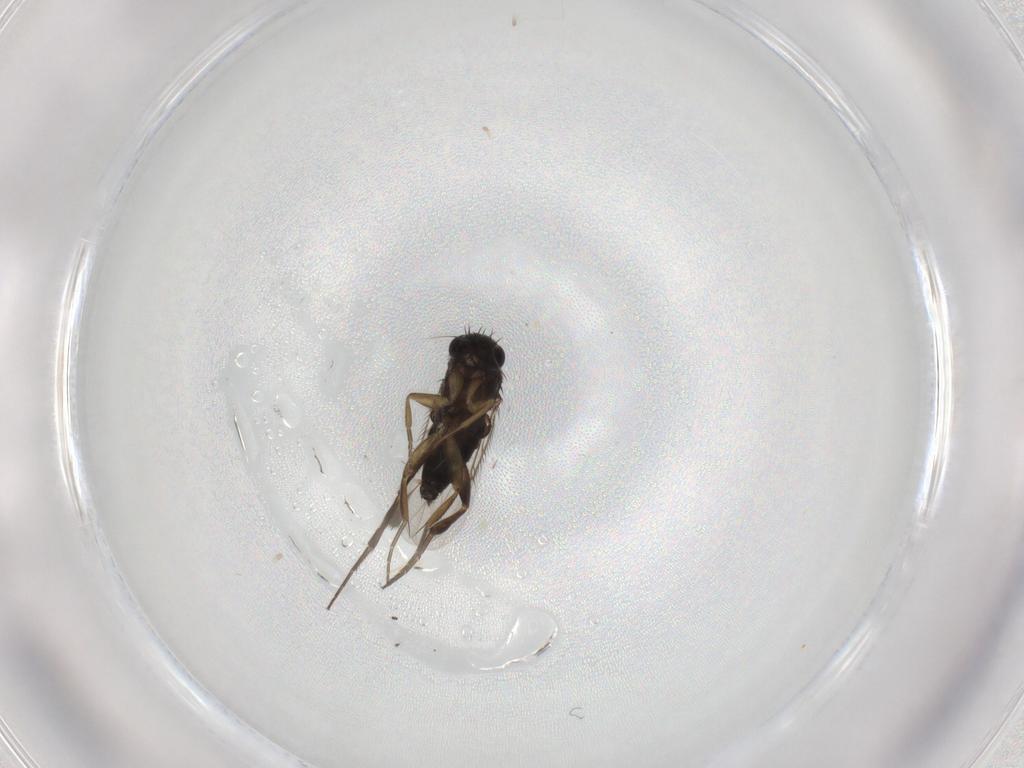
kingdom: Animalia
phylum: Arthropoda
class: Insecta
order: Diptera
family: Phoridae
